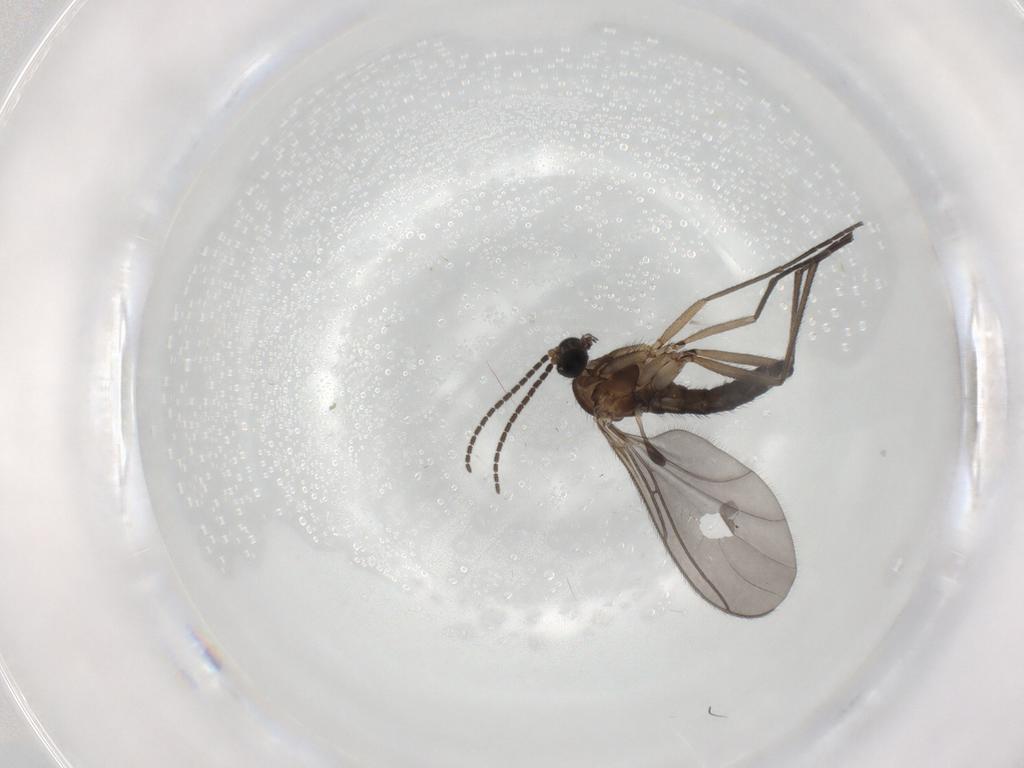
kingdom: Animalia
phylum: Arthropoda
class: Insecta
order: Diptera
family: Sciaridae
